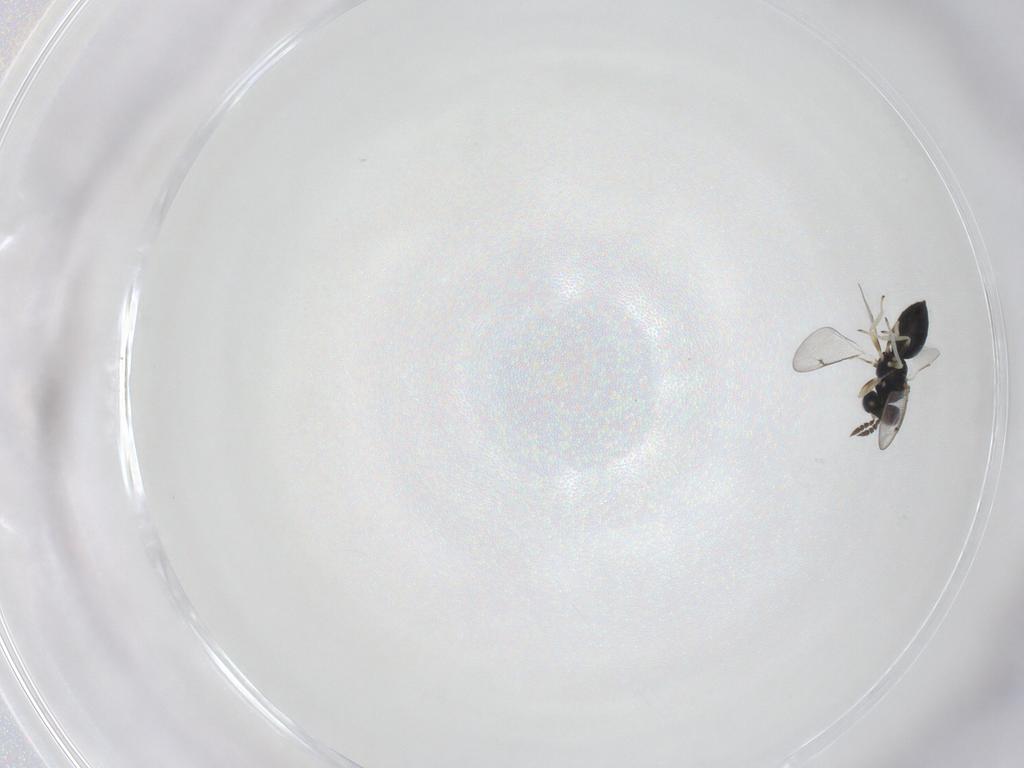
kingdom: Animalia
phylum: Arthropoda
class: Insecta
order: Hymenoptera
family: Eulophidae
